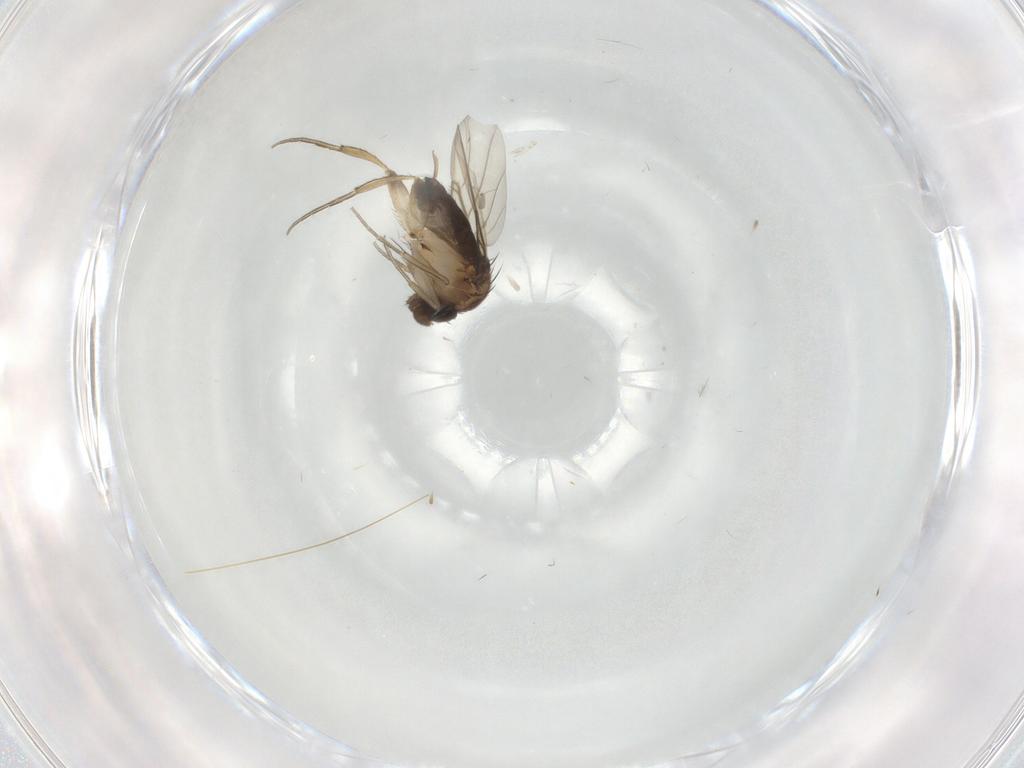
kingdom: Animalia
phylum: Arthropoda
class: Insecta
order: Diptera
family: Phoridae
